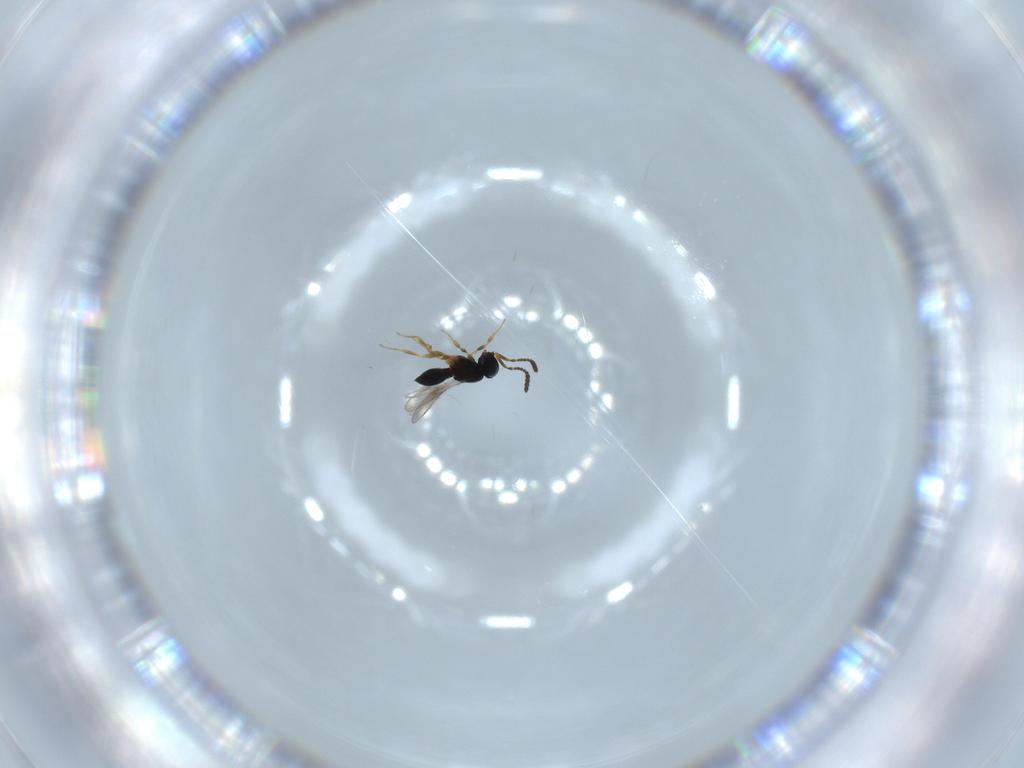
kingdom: Animalia
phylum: Arthropoda
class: Insecta
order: Hymenoptera
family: Scelionidae
